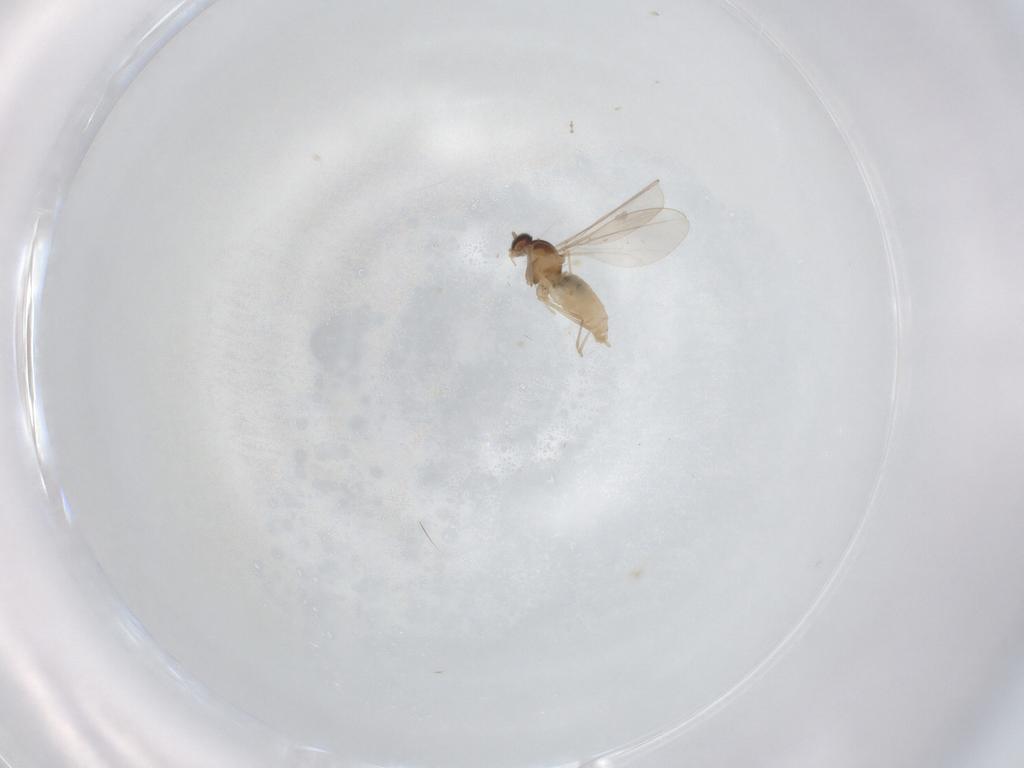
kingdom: Animalia
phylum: Arthropoda
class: Insecta
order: Diptera
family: Cecidomyiidae
